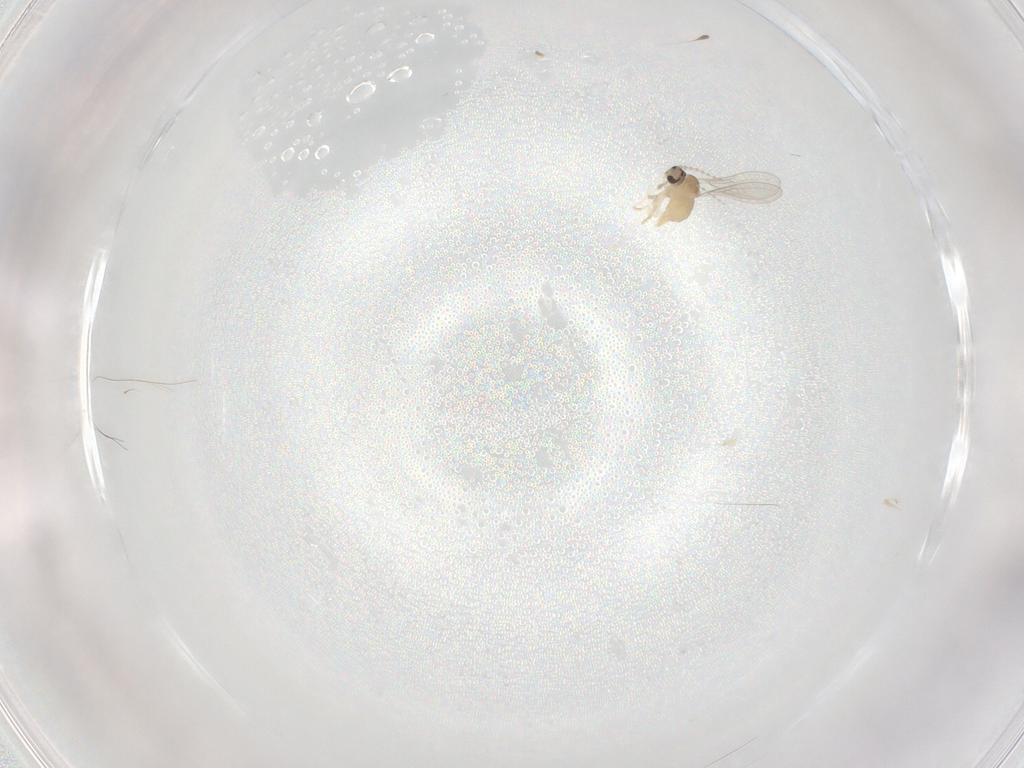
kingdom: Animalia
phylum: Arthropoda
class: Insecta
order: Diptera
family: Cecidomyiidae
